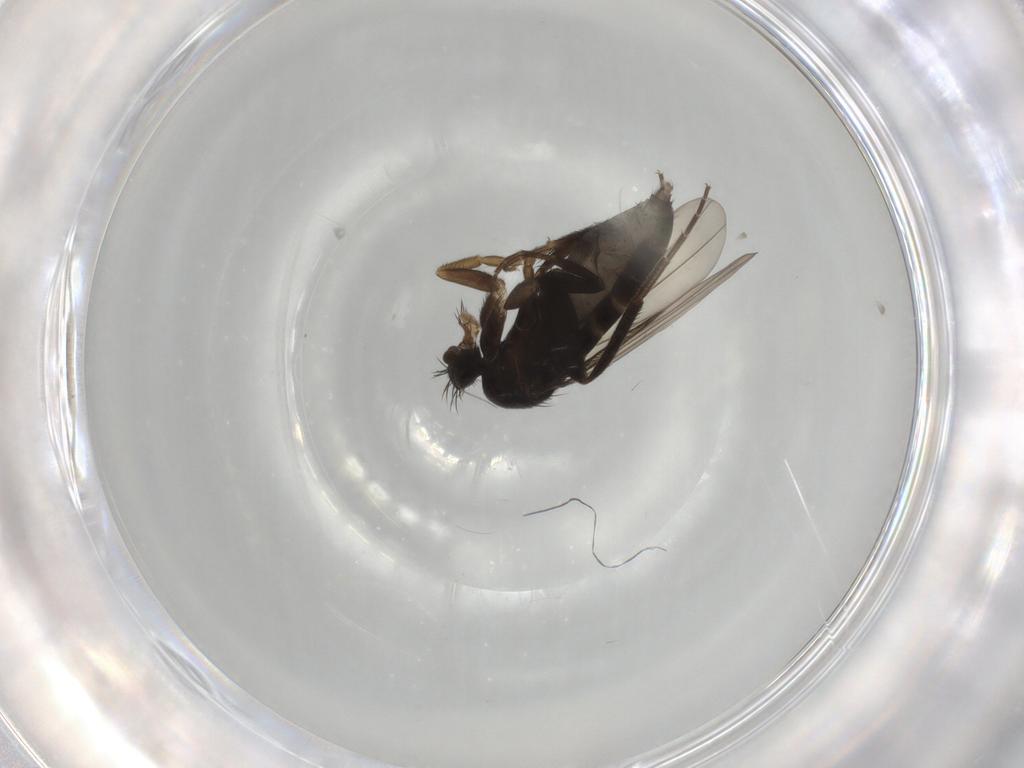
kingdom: Animalia
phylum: Arthropoda
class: Insecta
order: Diptera
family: Phoridae
